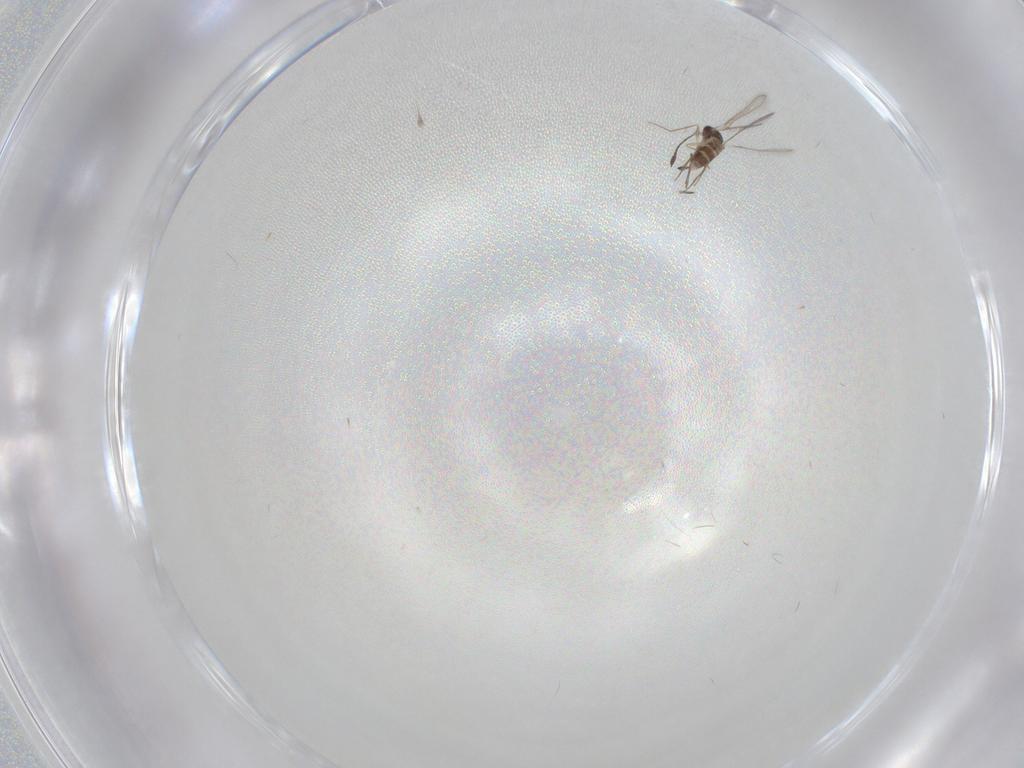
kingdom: Animalia
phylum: Arthropoda
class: Insecta
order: Hymenoptera
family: Mymaridae
